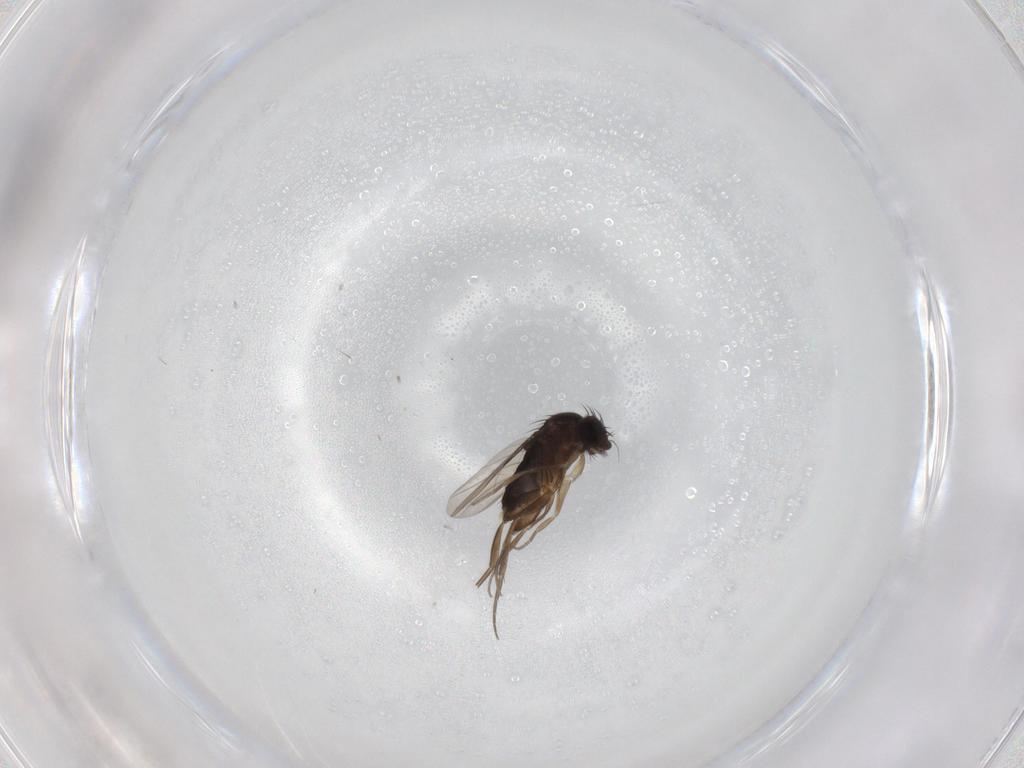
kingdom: Animalia
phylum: Arthropoda
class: Insecta
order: Diptera
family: Phoridae
